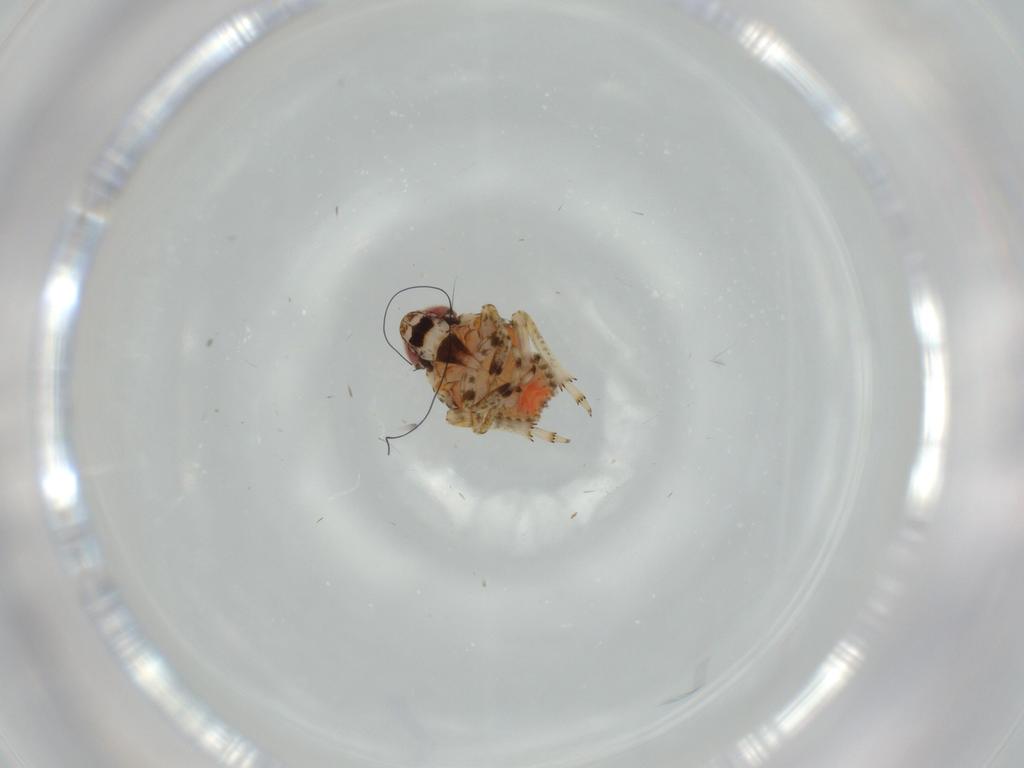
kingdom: Animalia
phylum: Arthropoda
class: Insecta
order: Hemiptera
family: Issidae
